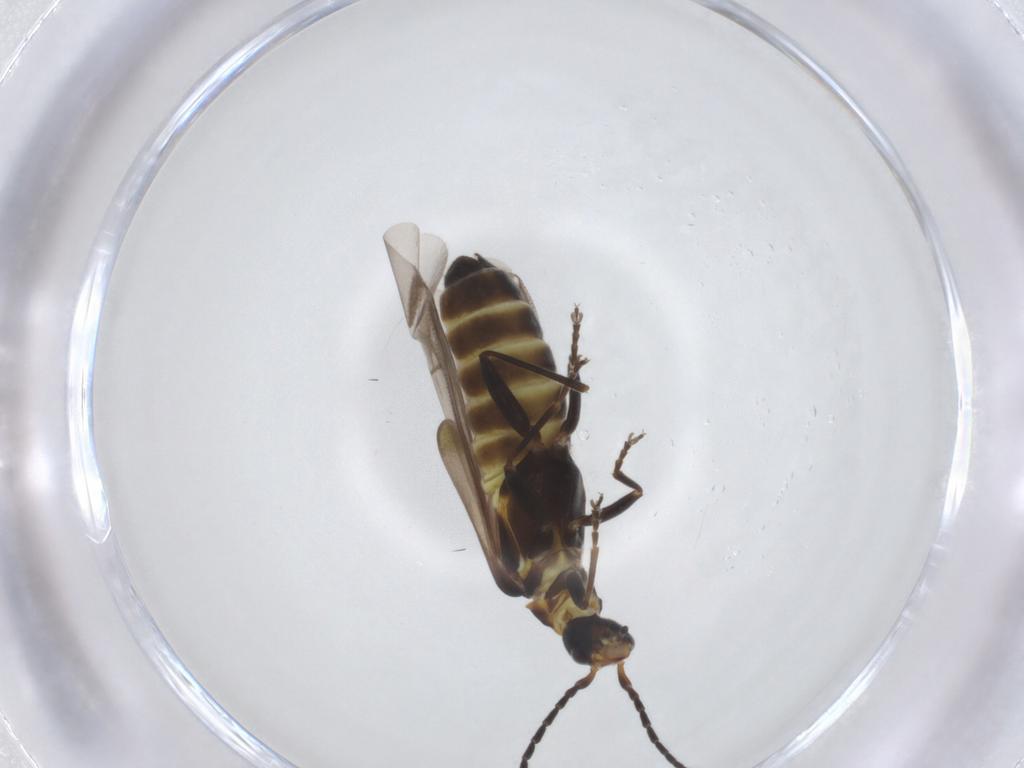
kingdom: Animalia
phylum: Arthropoda
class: Insecta
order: Coleoptera
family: Cantharidae
